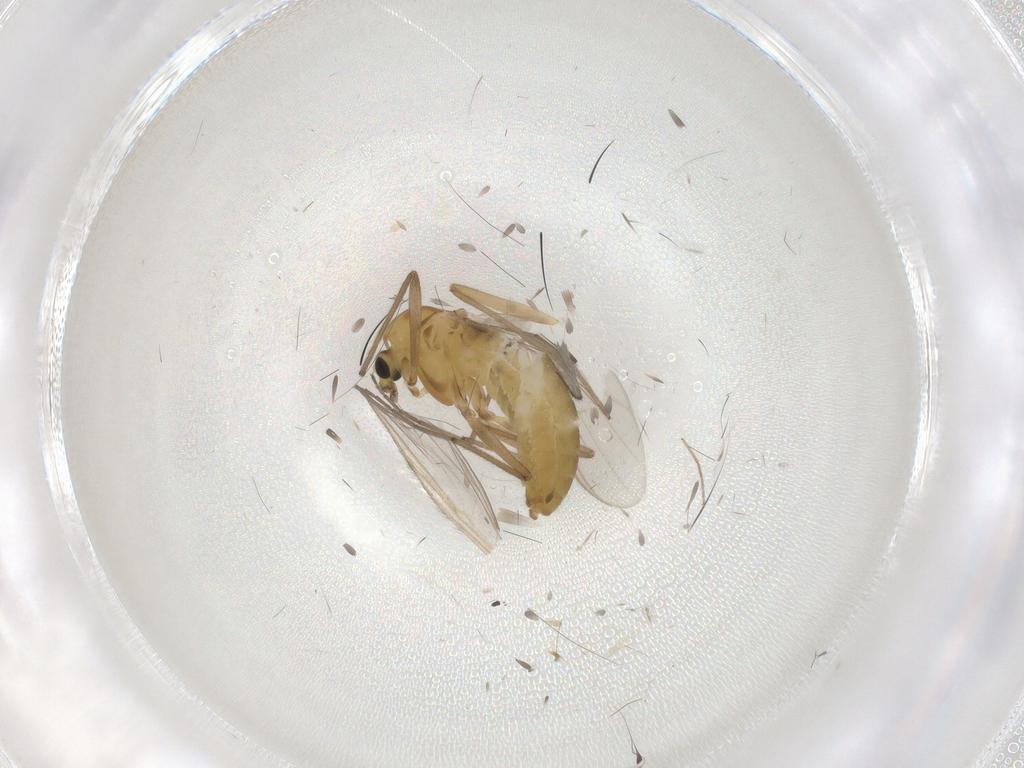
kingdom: Animalia
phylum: Arthropoda
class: Insecta
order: Diptera
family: Chironomidae
